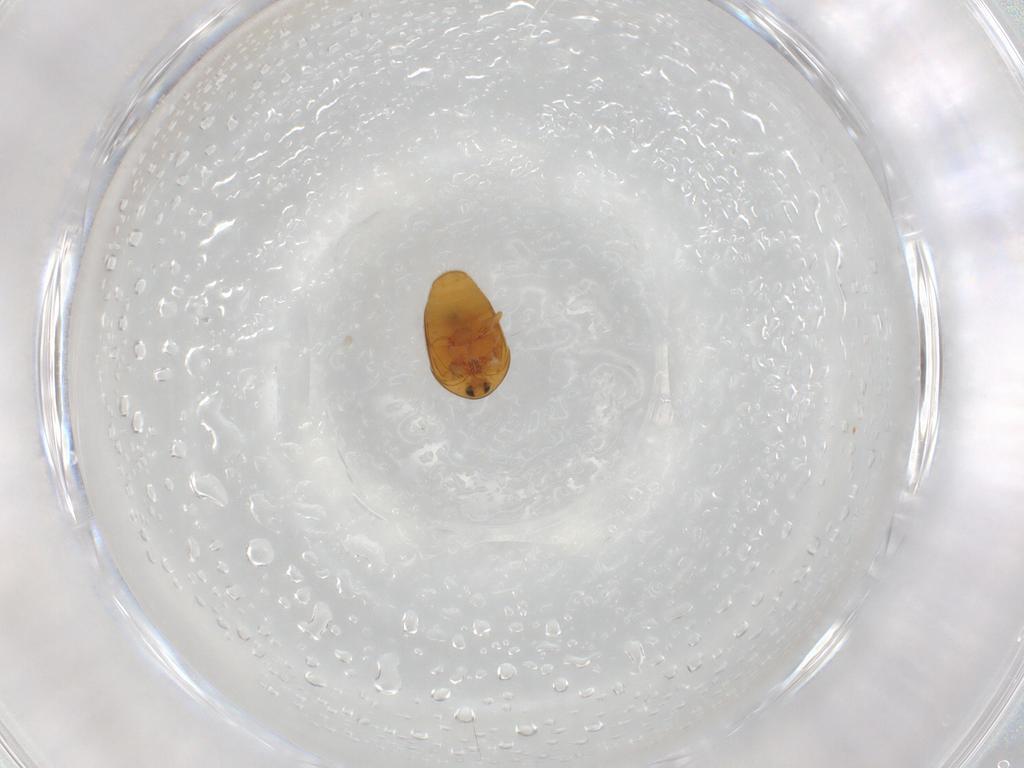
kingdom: Animalia
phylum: Arthropoda
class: Insecta
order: Coleoptera
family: Corylophidae
